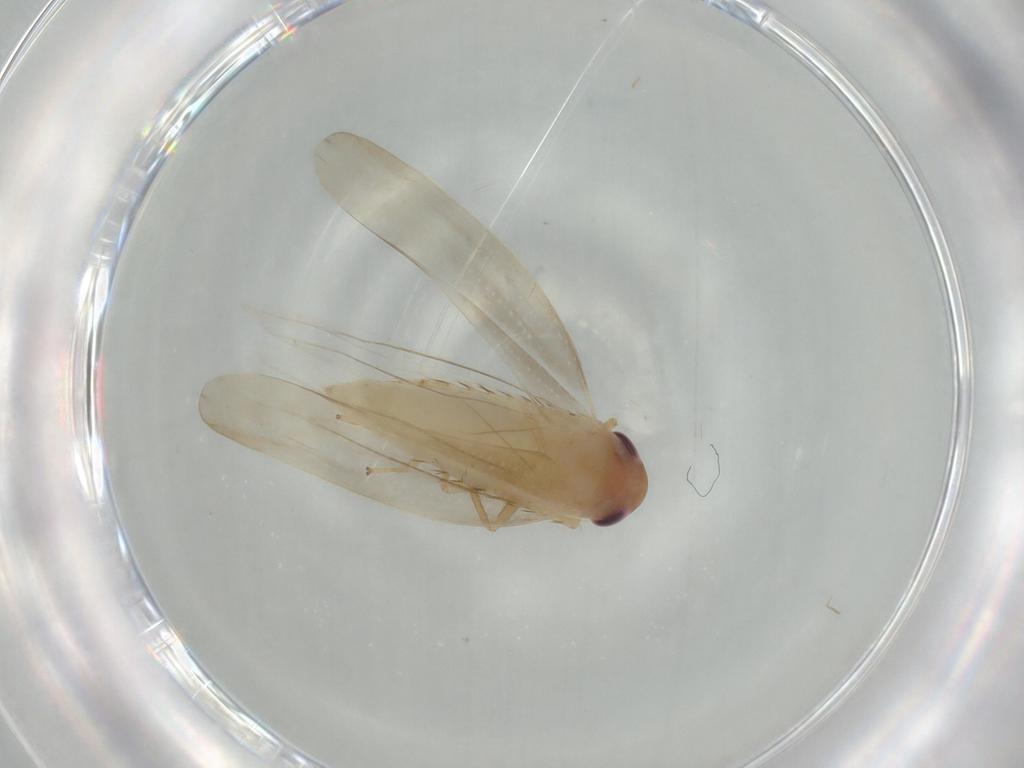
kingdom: Animalia
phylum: Arthropoda
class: Insecta
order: Hemiptera
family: Cicadellidae
